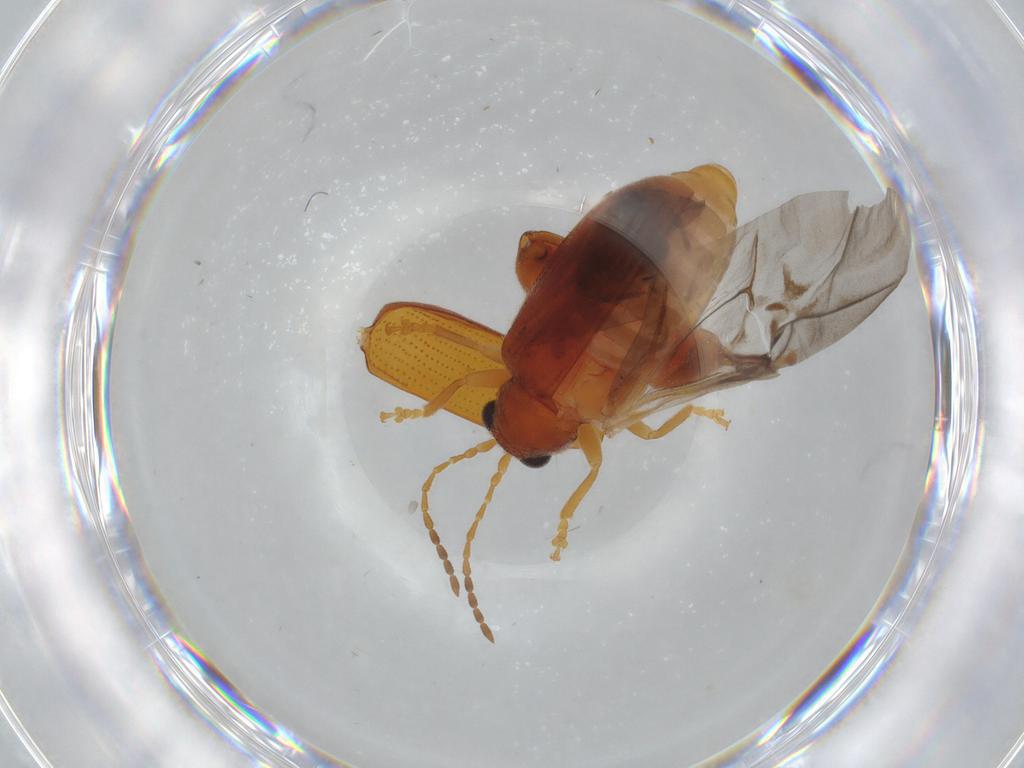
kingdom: Animalia
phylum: Arthropoda
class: Insecta
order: Coleoptera
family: Chrysomelidae
